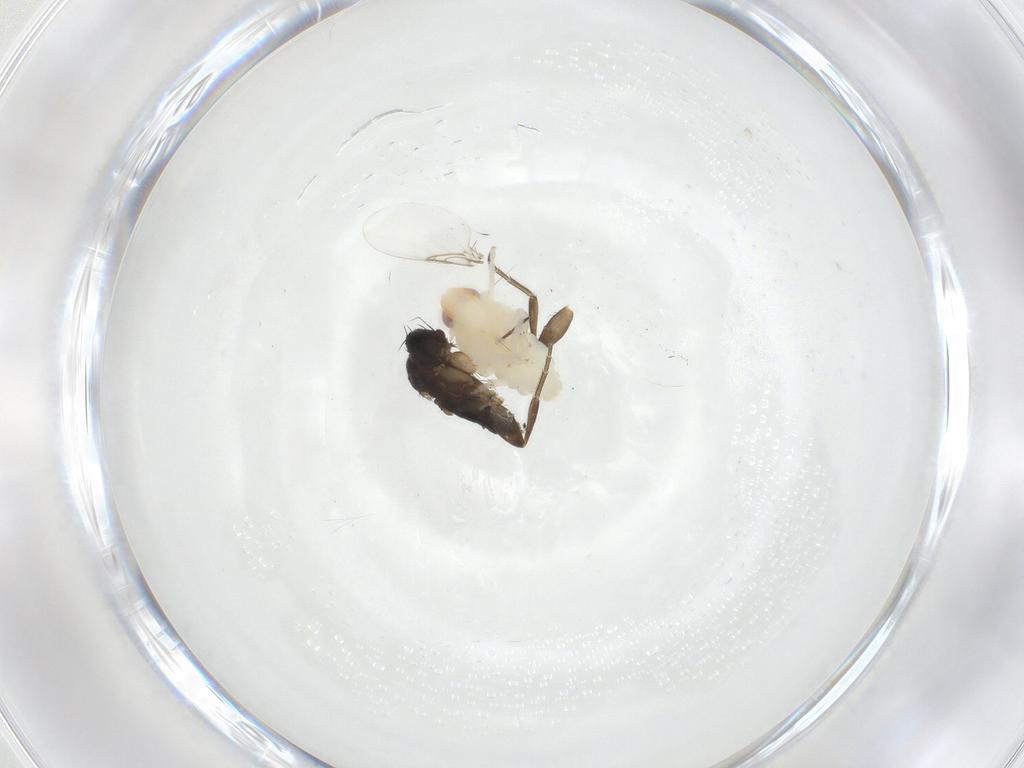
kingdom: Animalia
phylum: Arthropoda
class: Insecta
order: Diptera
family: Phoridae
